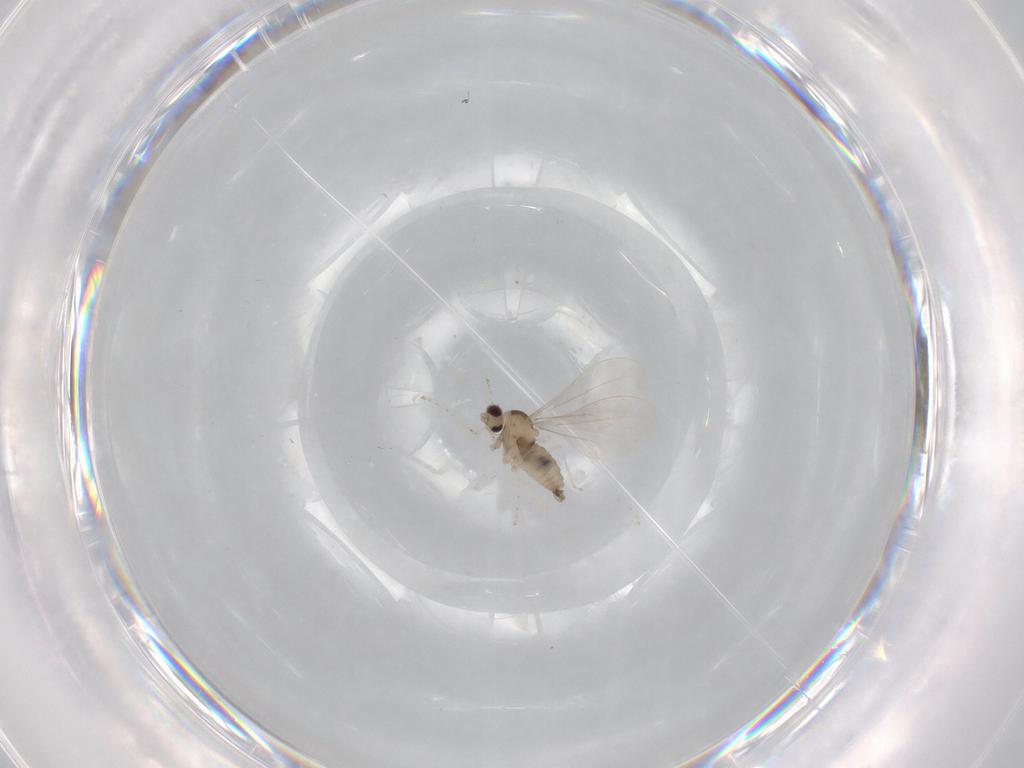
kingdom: Animalia
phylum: Arthropoda
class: Insecta
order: Diptera
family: Cecidomyiidae
